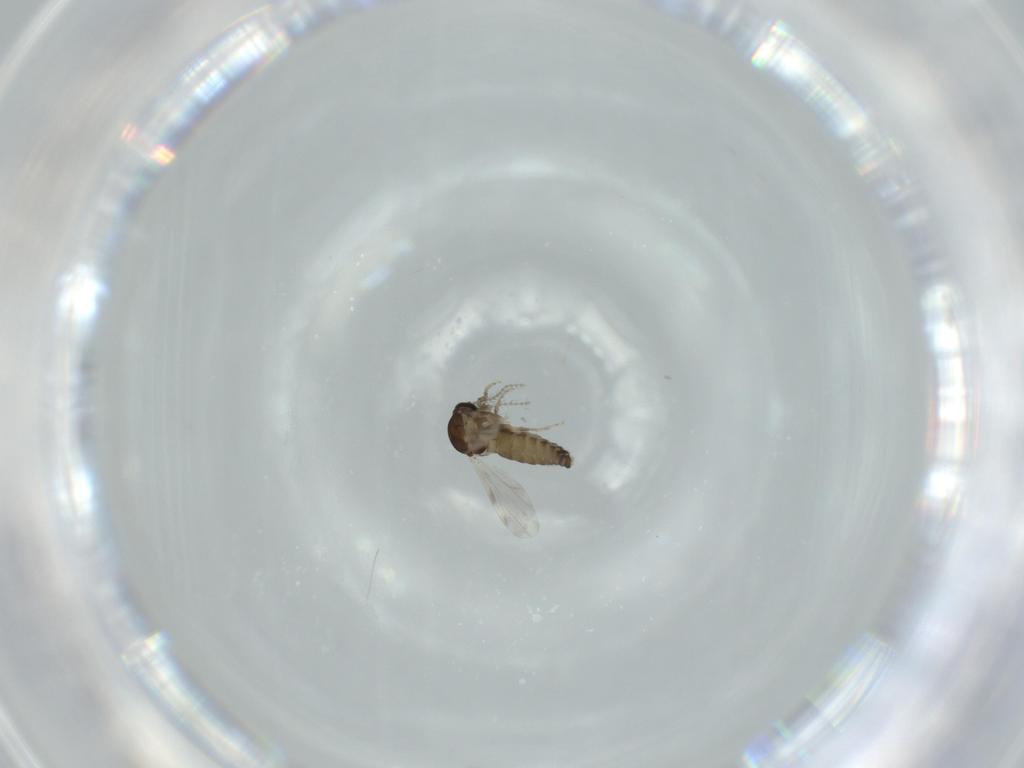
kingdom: Animalia
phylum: Arthropoda
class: Insecta
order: Diptera
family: Ceratopogonidae
